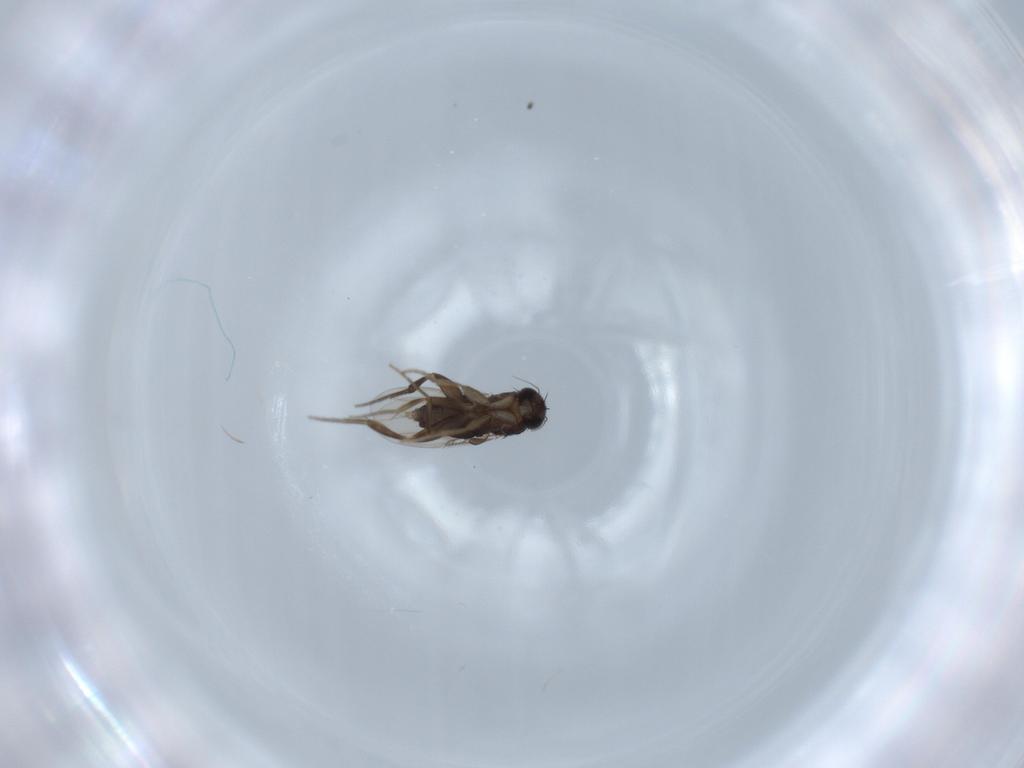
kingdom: Animalia
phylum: Arthropoda
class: Insecta
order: Diptera
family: Phoridae
